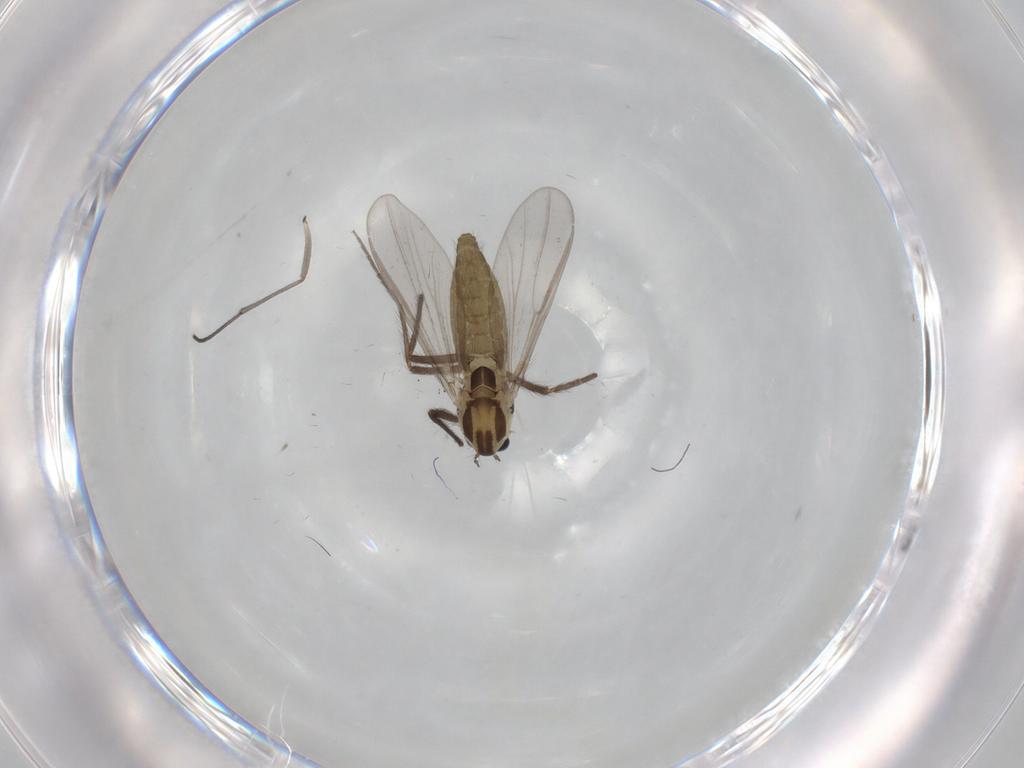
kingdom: Animalia
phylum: Arthropoda
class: Insecta
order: Diptera
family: Chironomidae
